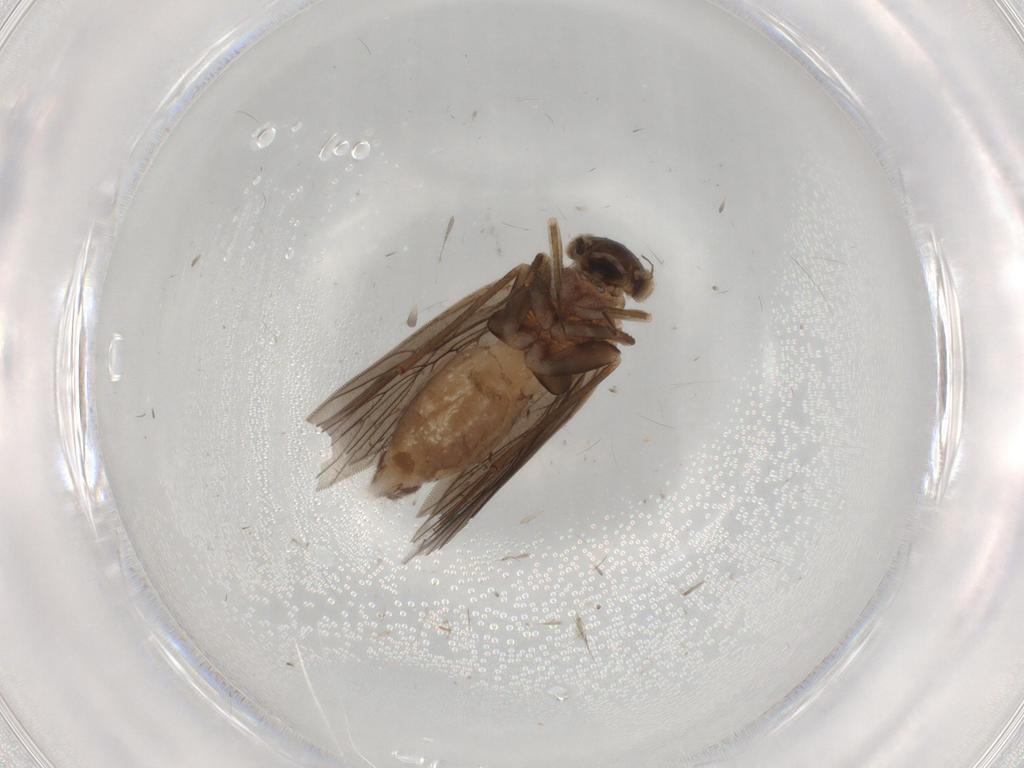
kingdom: Animalia
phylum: Arthropoda
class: Insecta
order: Psocodea
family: Lepidopsocidae
